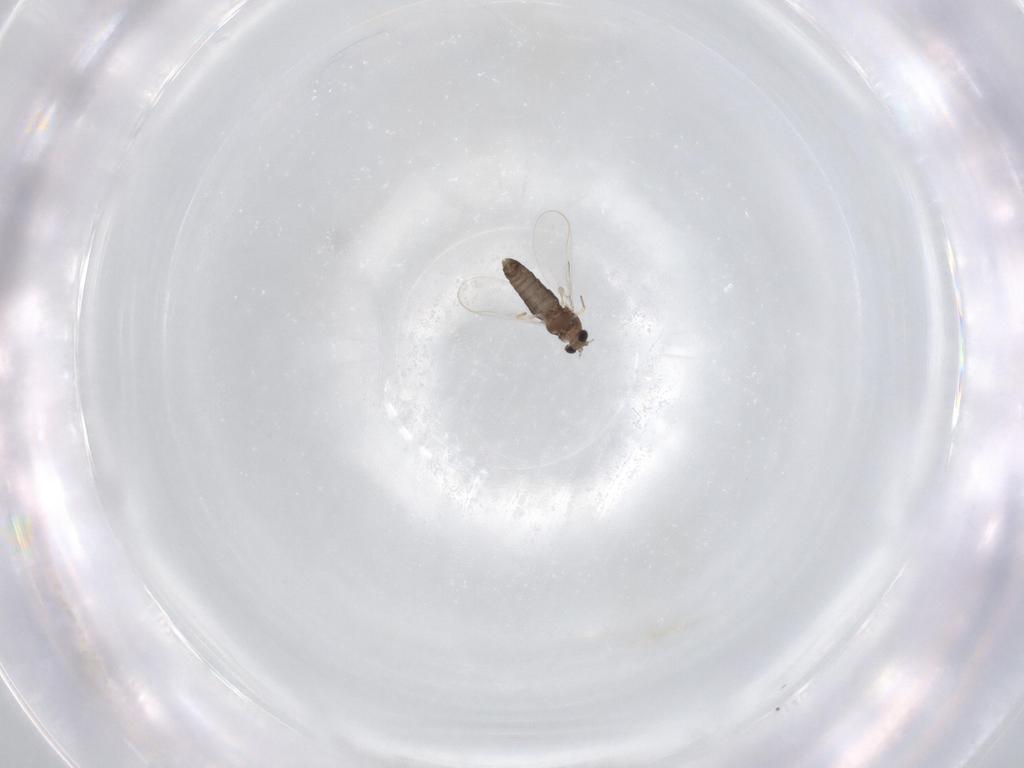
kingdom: Animalia
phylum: Arthropoda
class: Insecta
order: Diptera
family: Chironomidae
